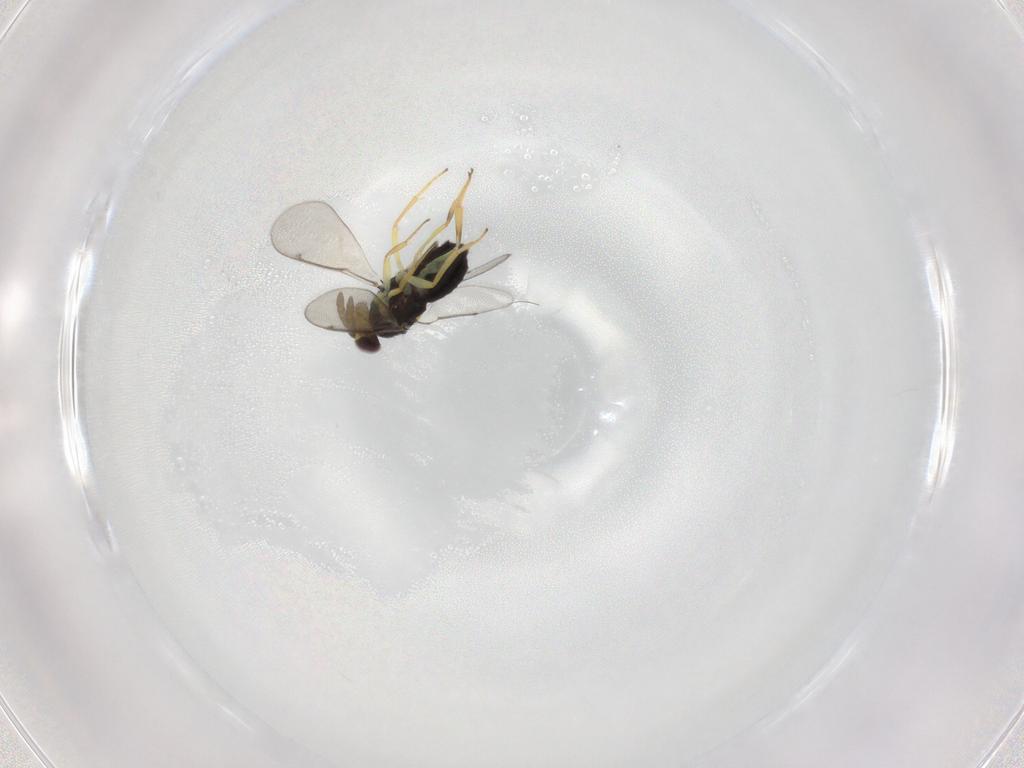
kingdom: Animalia
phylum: Arthropoda
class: Insecta
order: Hymenoptera
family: Aphelinidae
